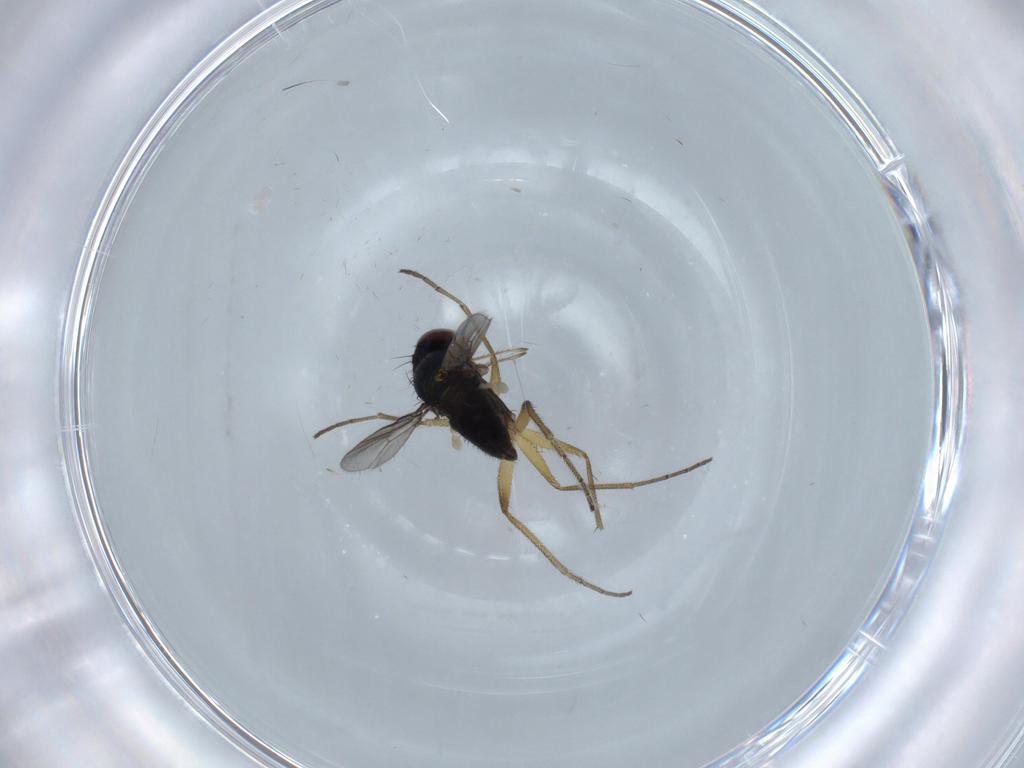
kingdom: Animalia
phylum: Arthropoda
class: Insecta
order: Diptera
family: Dolichopodidae
